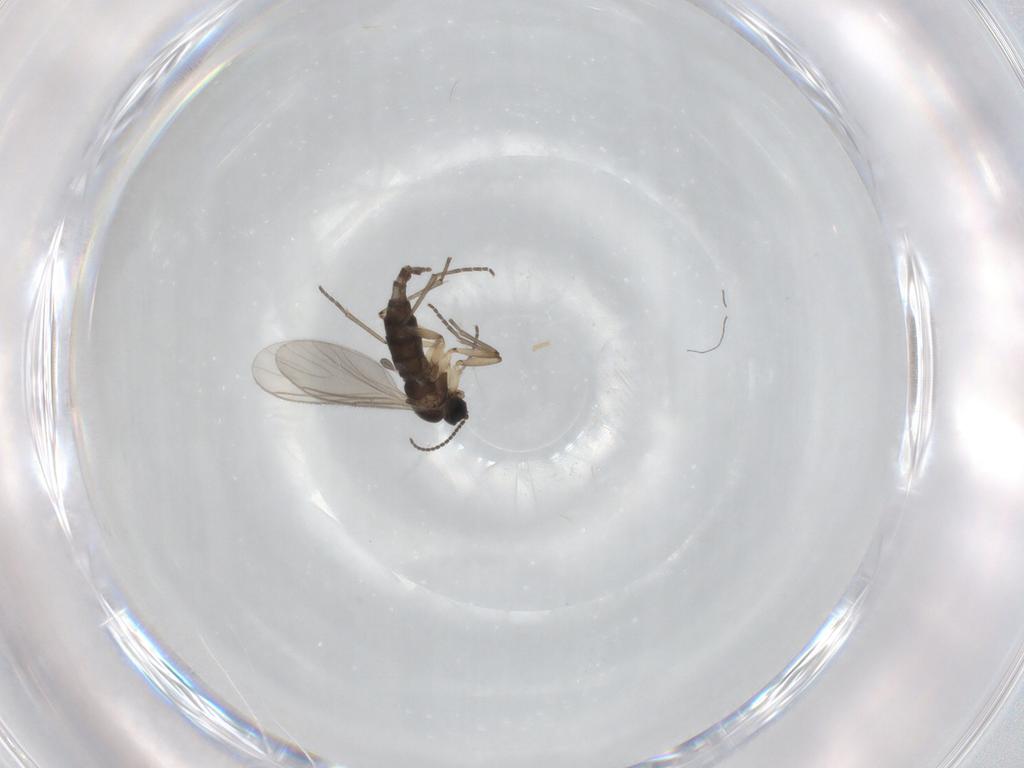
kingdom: Animalia
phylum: Arthropoda
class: Insecta
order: Diptera
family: Sciaridae
